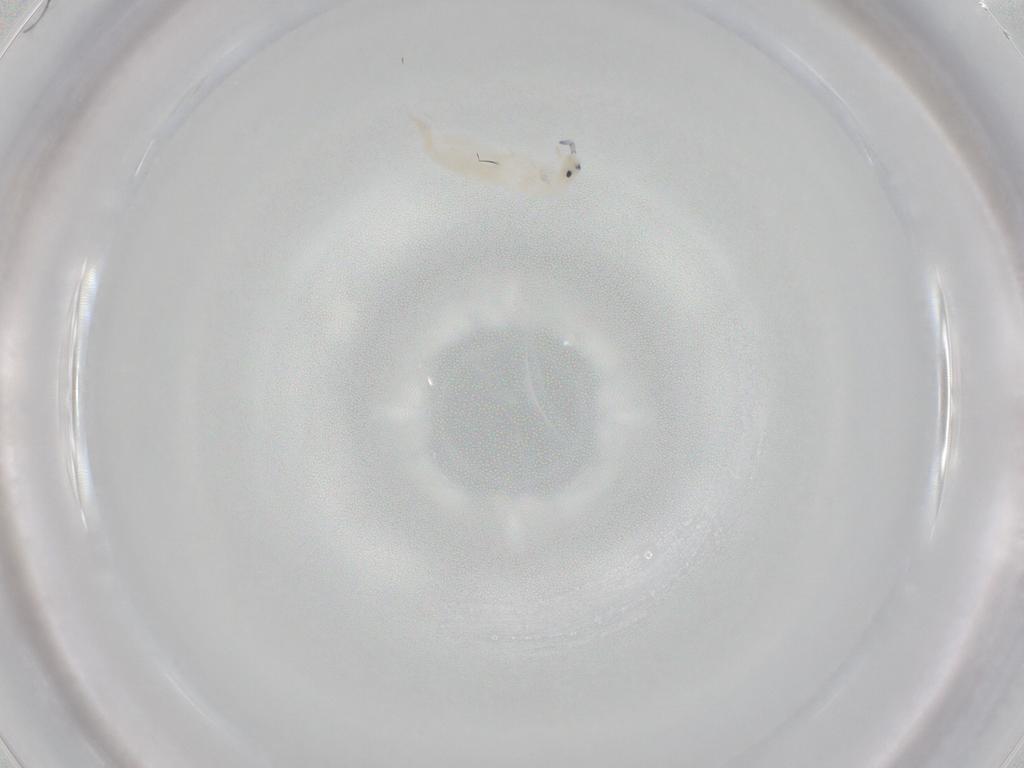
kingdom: Animalia
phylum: Arthropoda
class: Collembola
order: Entomobryomorpha
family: Entomobryidae
